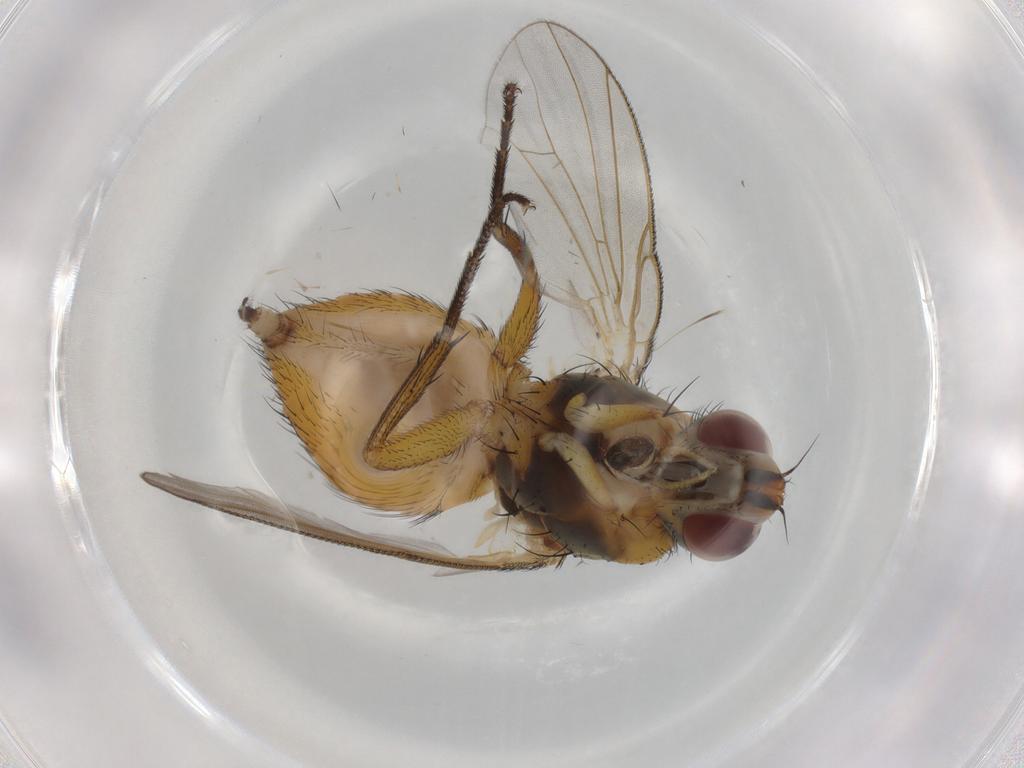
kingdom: Animalia
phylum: Arthropoda
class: Insecta
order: Diptera
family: Muscidae
